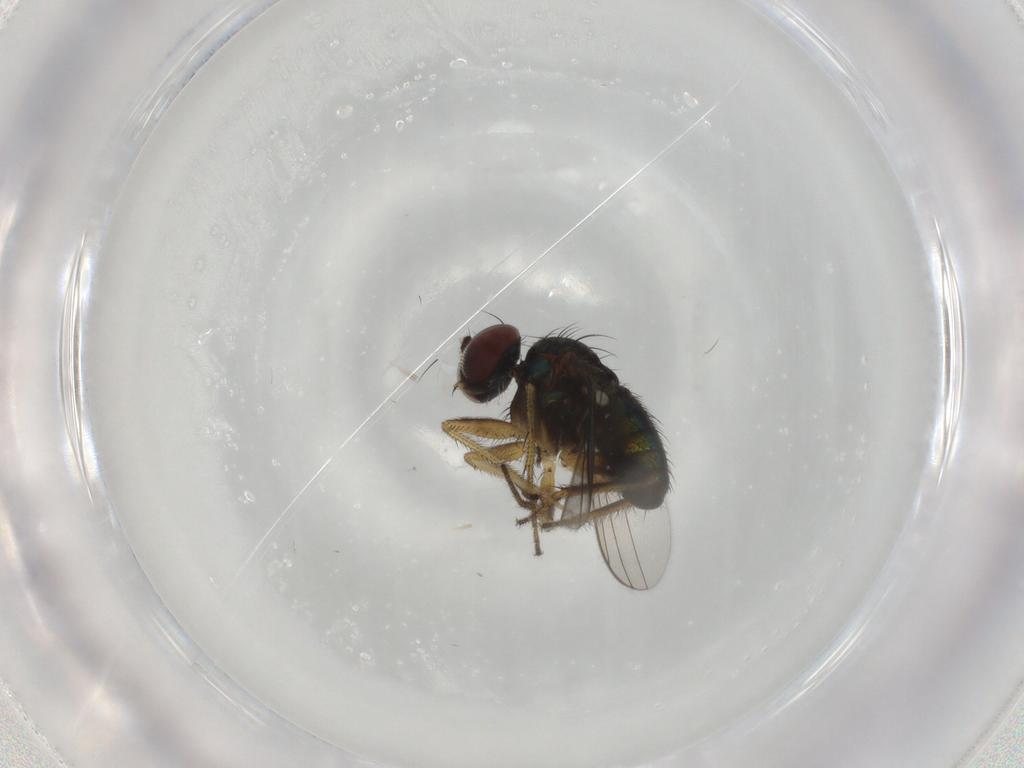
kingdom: Animalia
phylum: Arthropoda
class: Insecta
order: Diptera
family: Dolichopodidae
